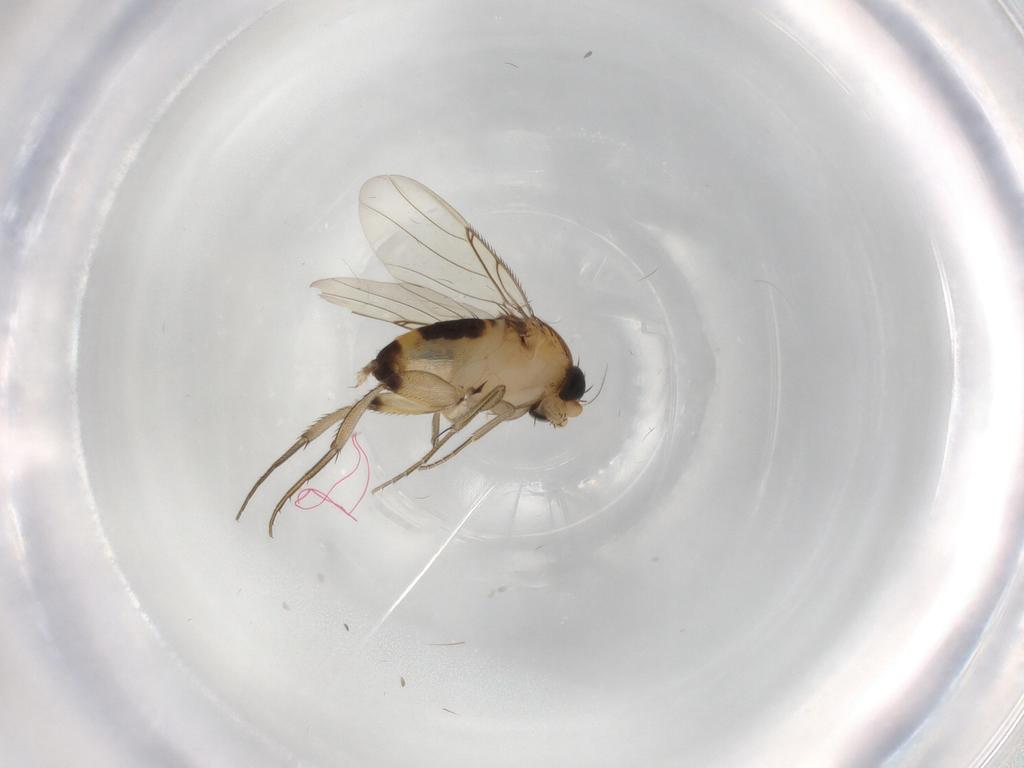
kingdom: Animalia
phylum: Arthropoda
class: Insecta
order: Diptera
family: Phoridae
